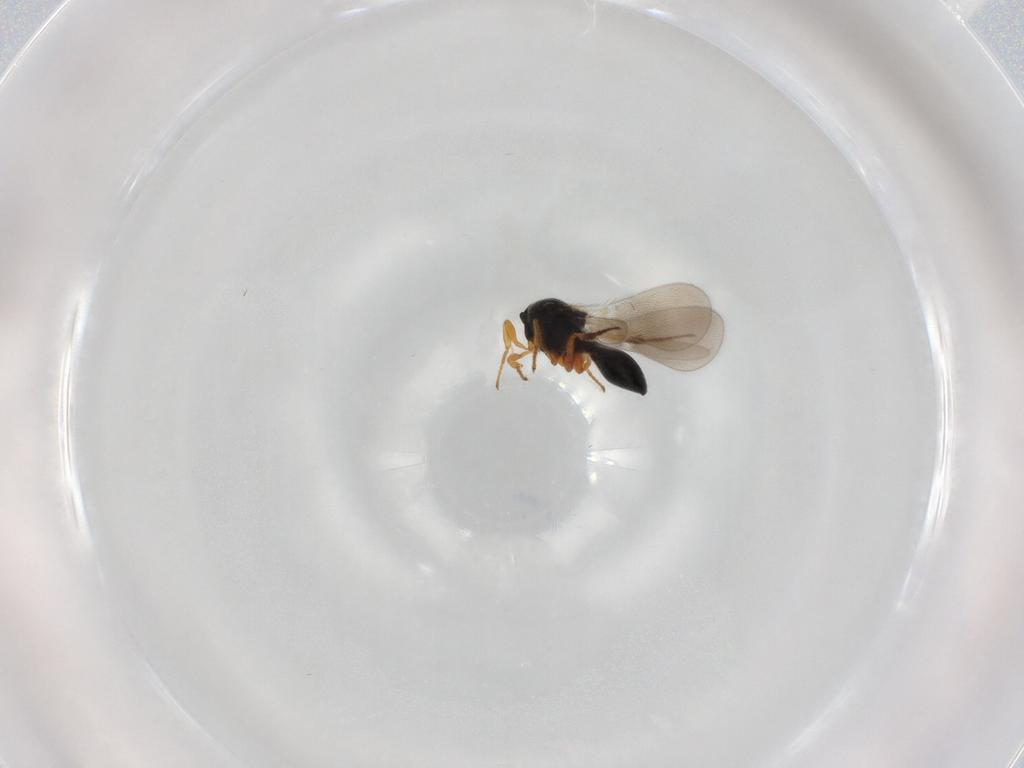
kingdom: Animalia
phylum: Arthropoda
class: Insecta
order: Hymenoptera
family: Platygastridae
